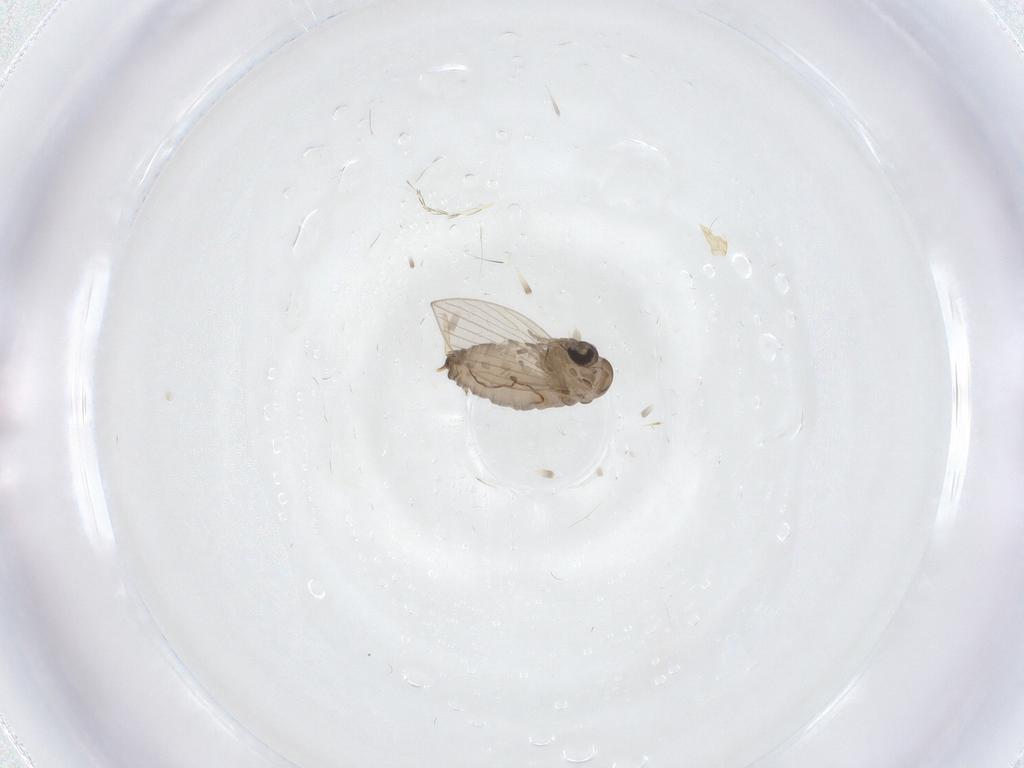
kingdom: Animalia
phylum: Arthropoda
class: Insecta
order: Diptera
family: Psychodidae
